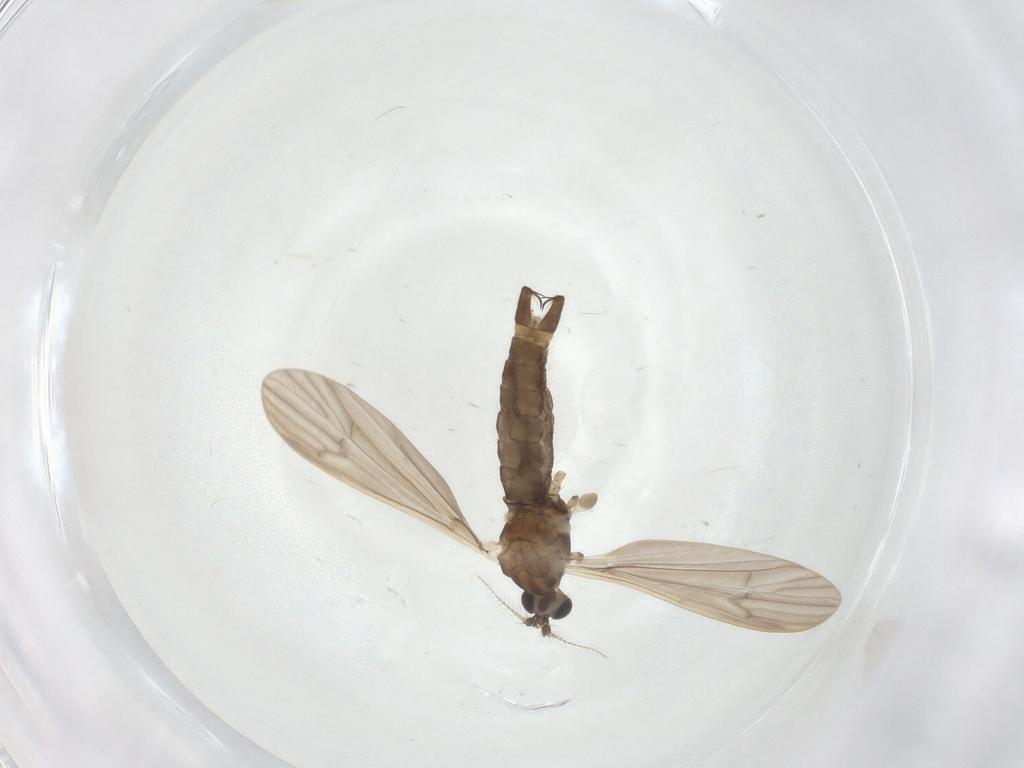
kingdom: Animalia
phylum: Arthropoda
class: Insecta
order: Diptera
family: Limoniidae
